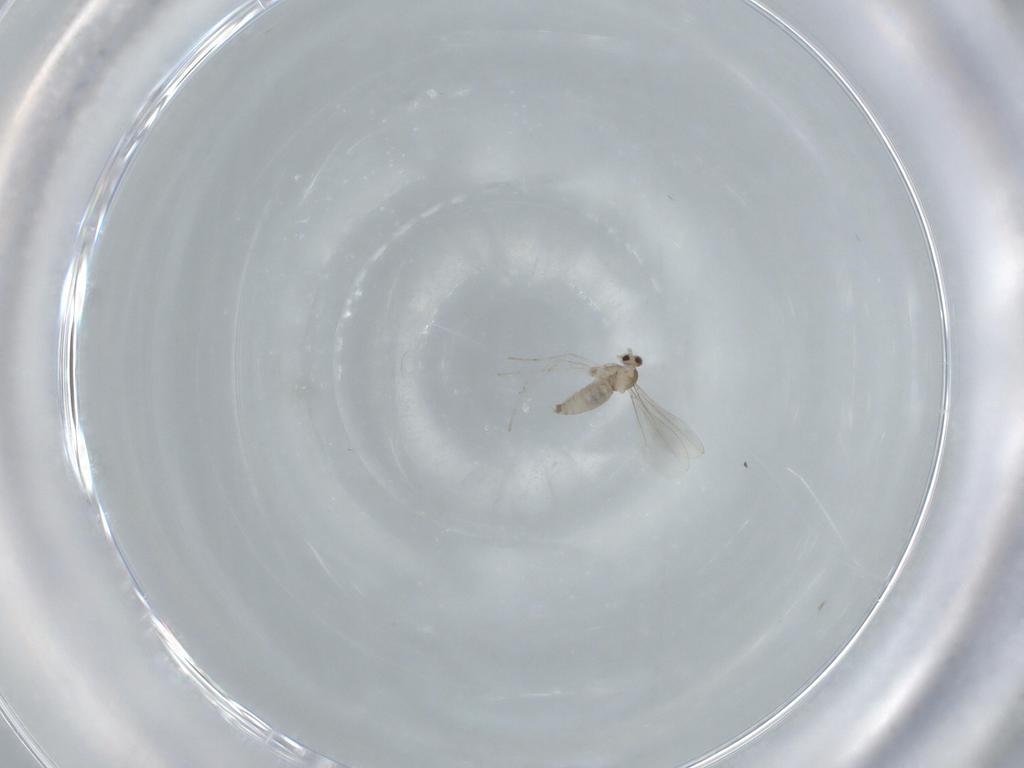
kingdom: Animalia
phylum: Arthropoda
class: Insecta
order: Diptera
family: Cecidomyiidae
